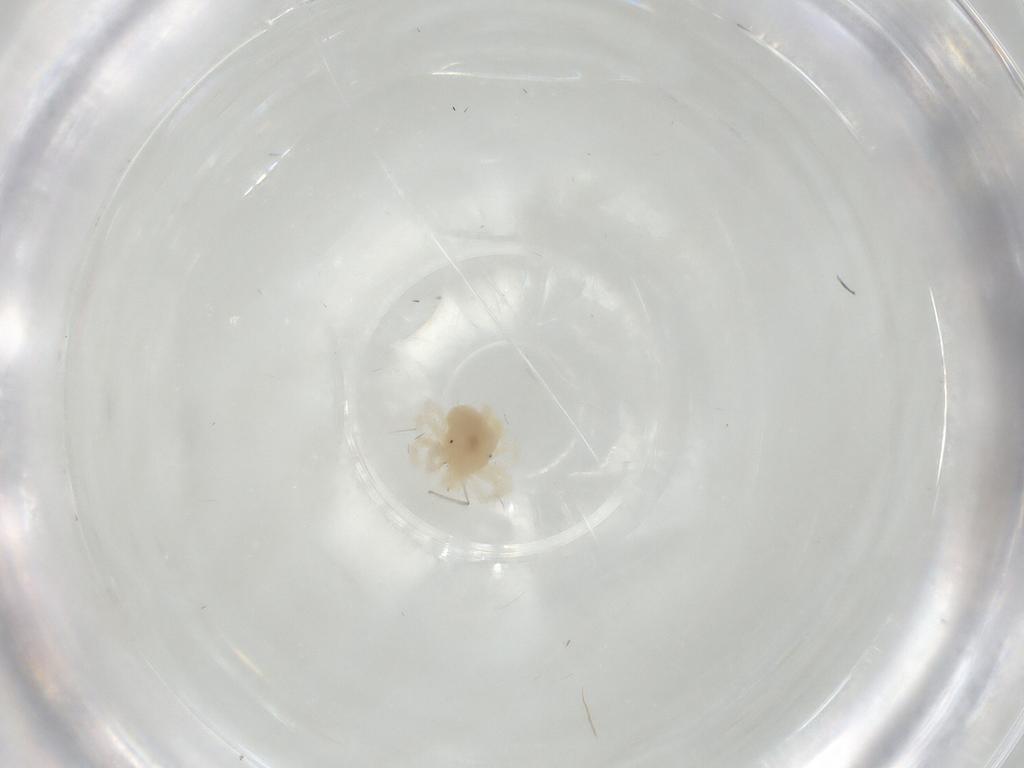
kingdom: Animalia
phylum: Arthropoda
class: Arachnida
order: Trombidiformes
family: Anystidae
